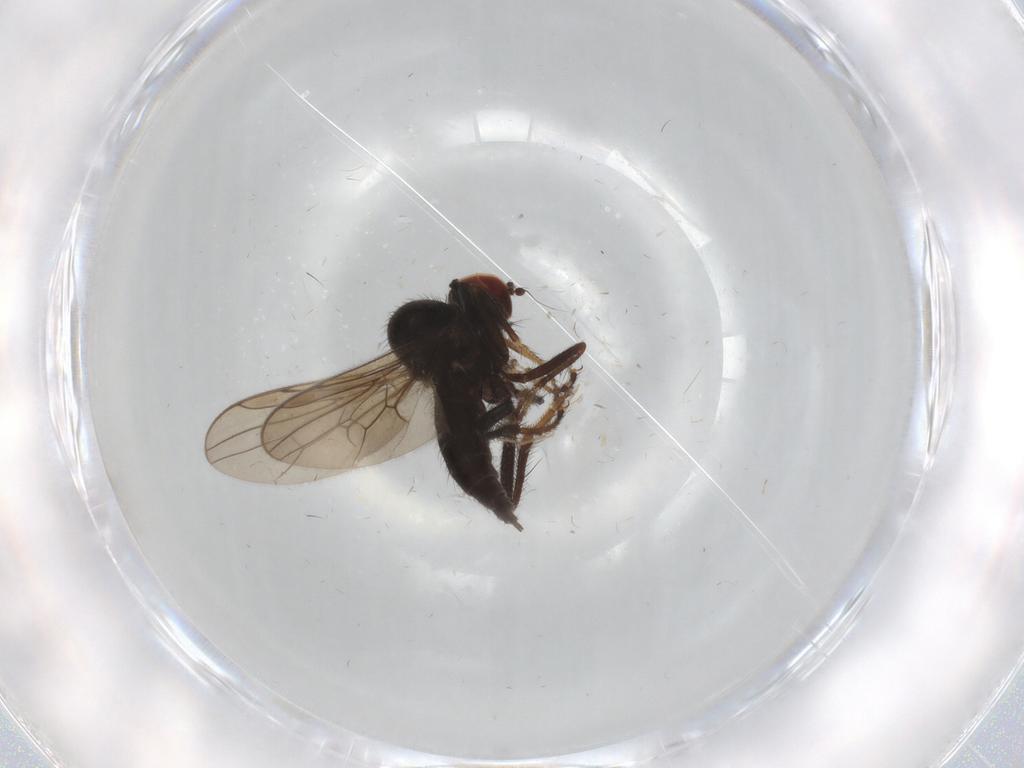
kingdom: Animalia
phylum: Arthropoda
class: Insecta
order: Diptera
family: Hybotidae
